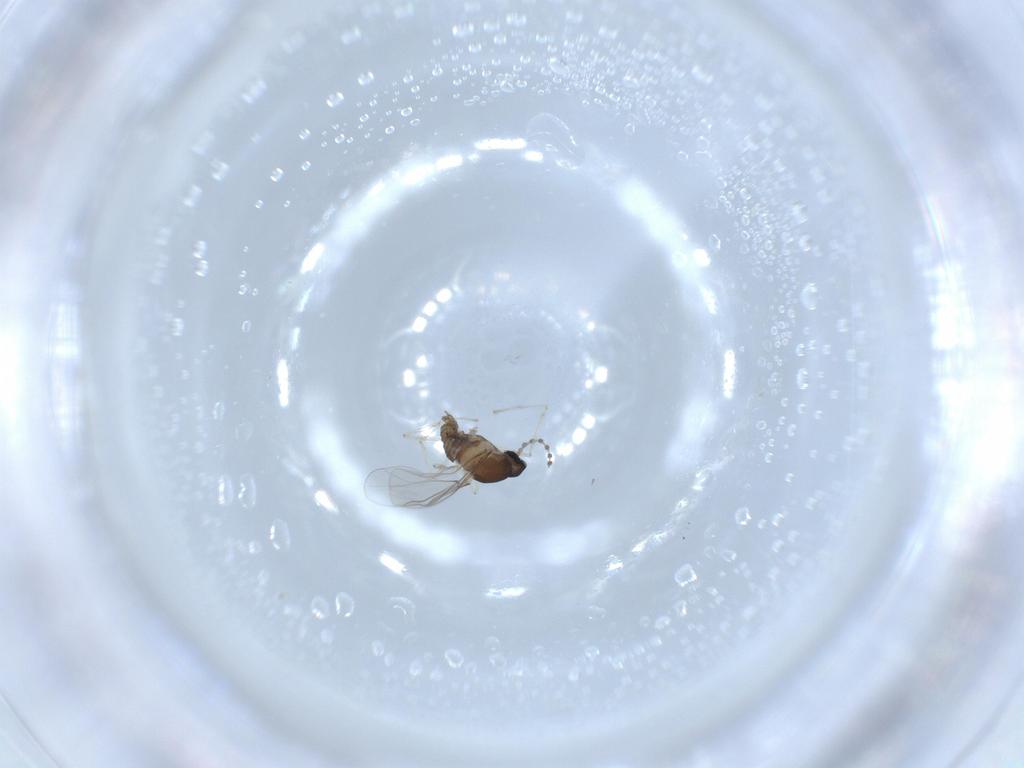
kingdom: Animalia
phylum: Arthropoda
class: Insecta
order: Diptera
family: Cecidomyiidae
